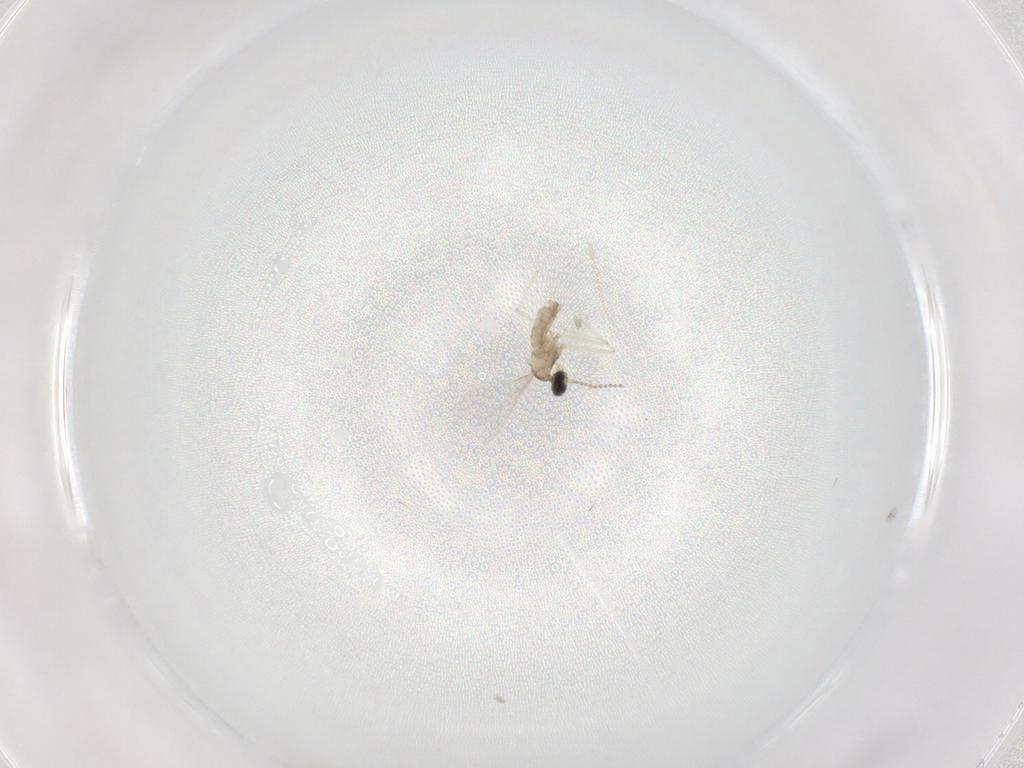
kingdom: Animalia
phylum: Arthropoda
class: Insecta
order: Diptera
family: Cecidomyiidae
